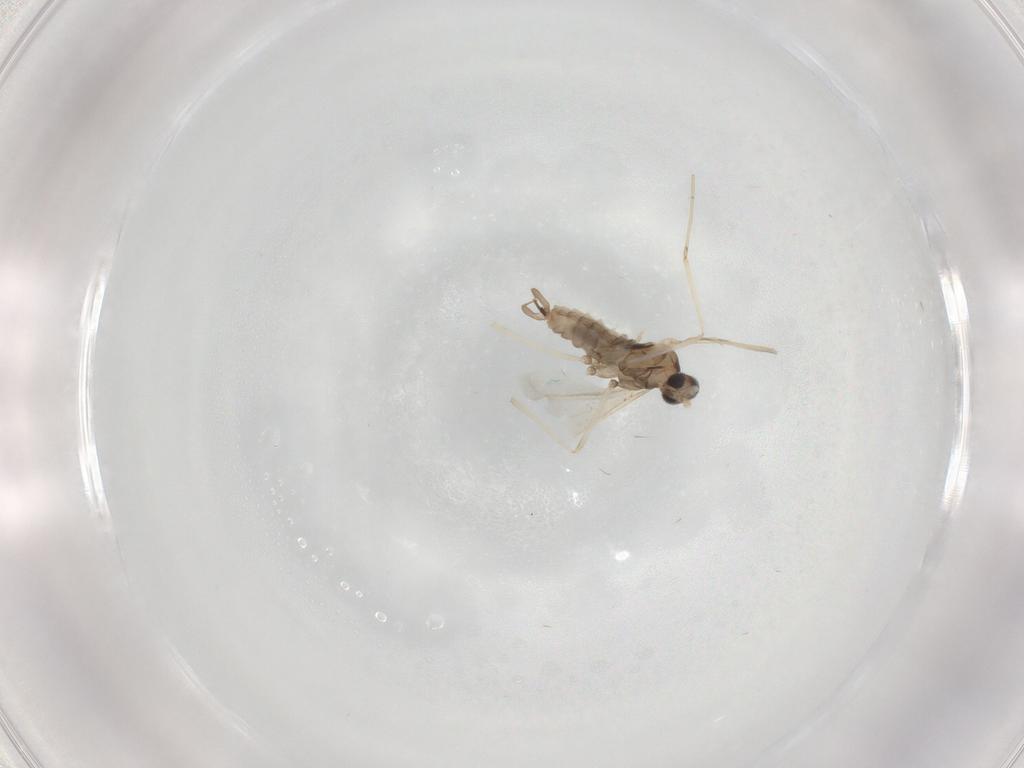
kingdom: Animalia
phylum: Arthropoda
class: Insecta
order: Diptera
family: Cecidomyiidae
